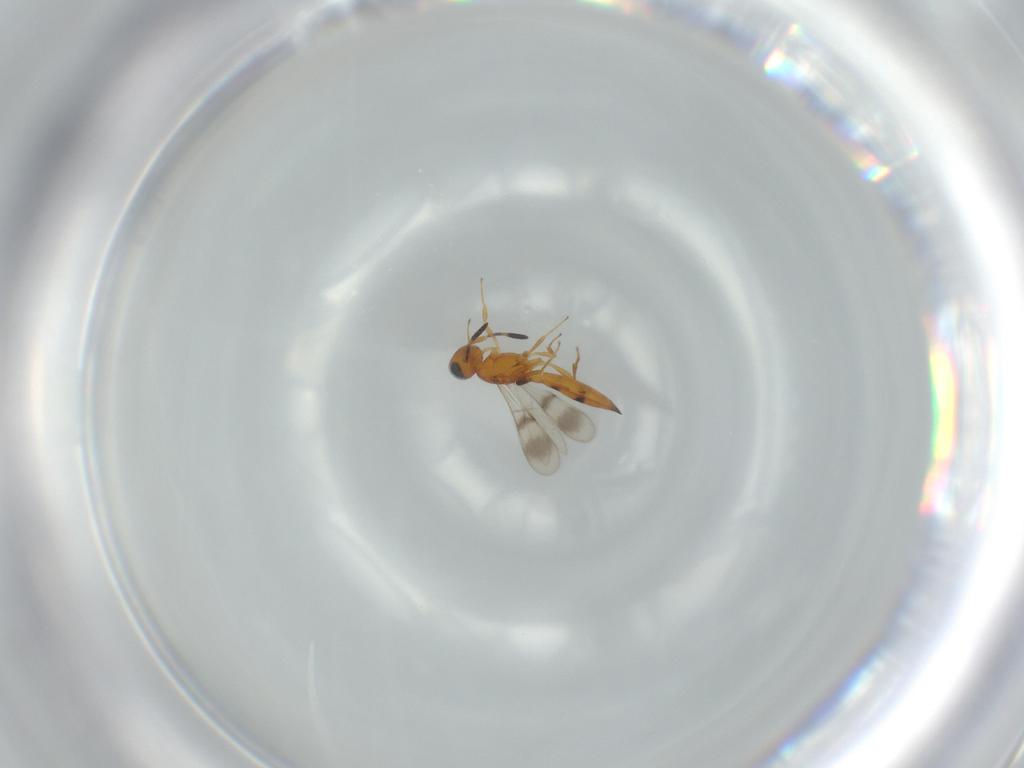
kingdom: Animalia
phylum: Arthropoda
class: Insecta
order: Hymenoptera
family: Scelionidae
